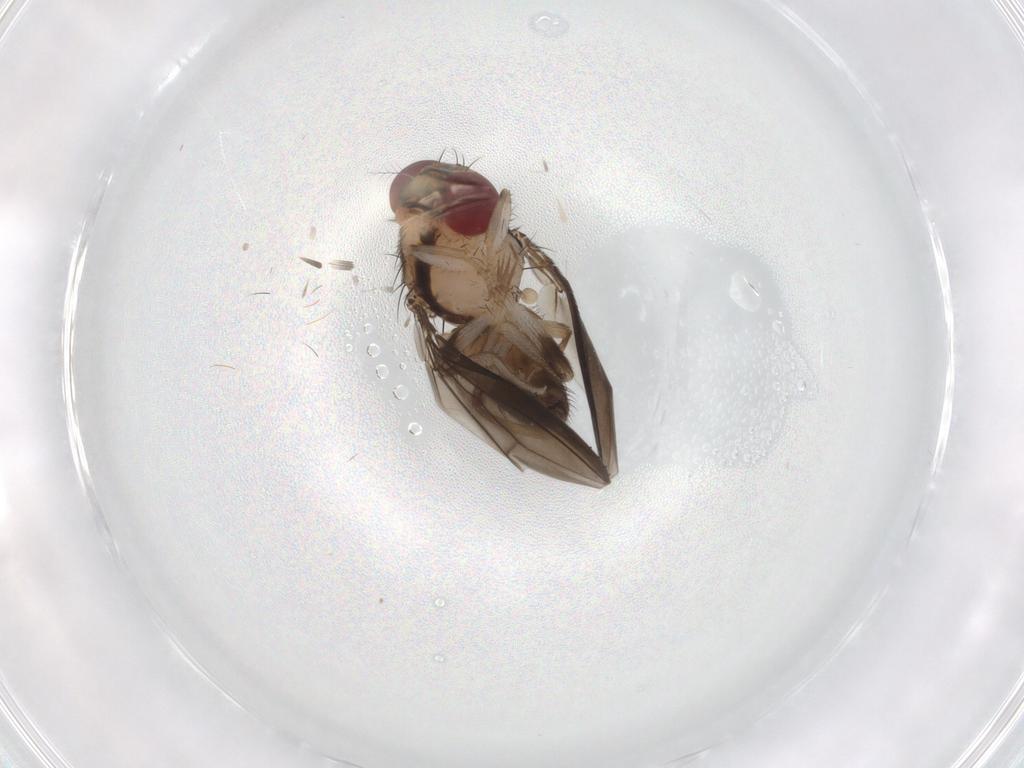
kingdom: Animalia
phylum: Arthropoda
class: Insecta
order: Diptera
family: Drosophilidae
